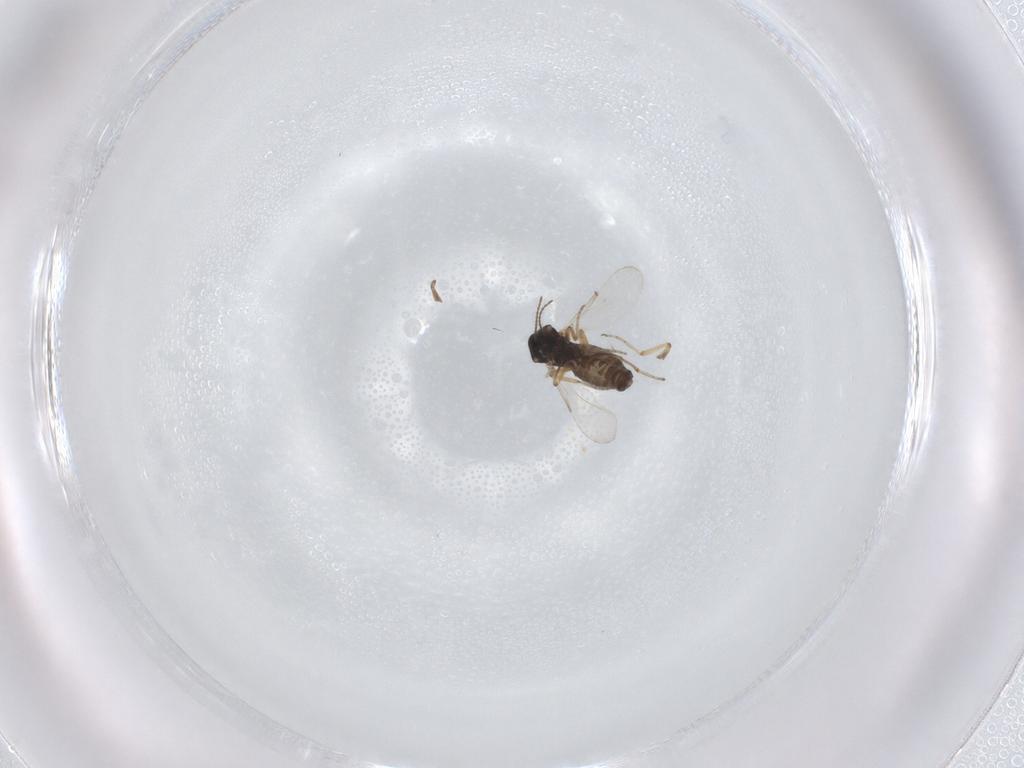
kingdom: Animalia
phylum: Arthropoda
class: Insecta
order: Diptera
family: Ceratopogonidae
